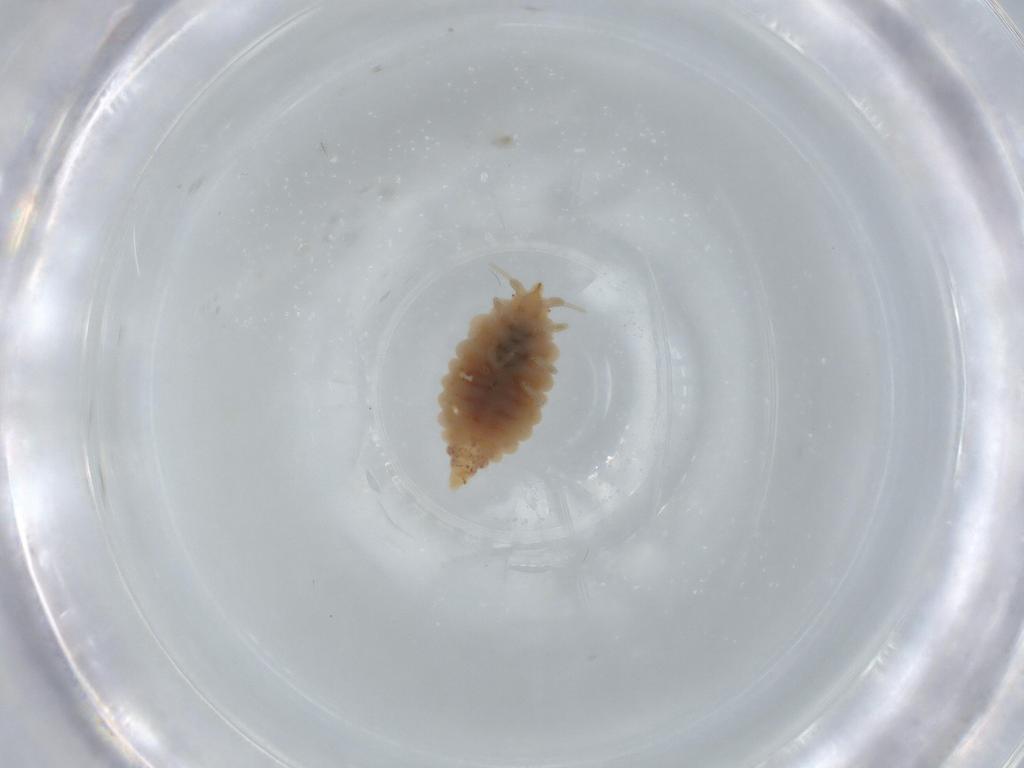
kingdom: Animalia
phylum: Arthropoda
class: Insecta
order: Neuroptera
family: Coniopterygidae
